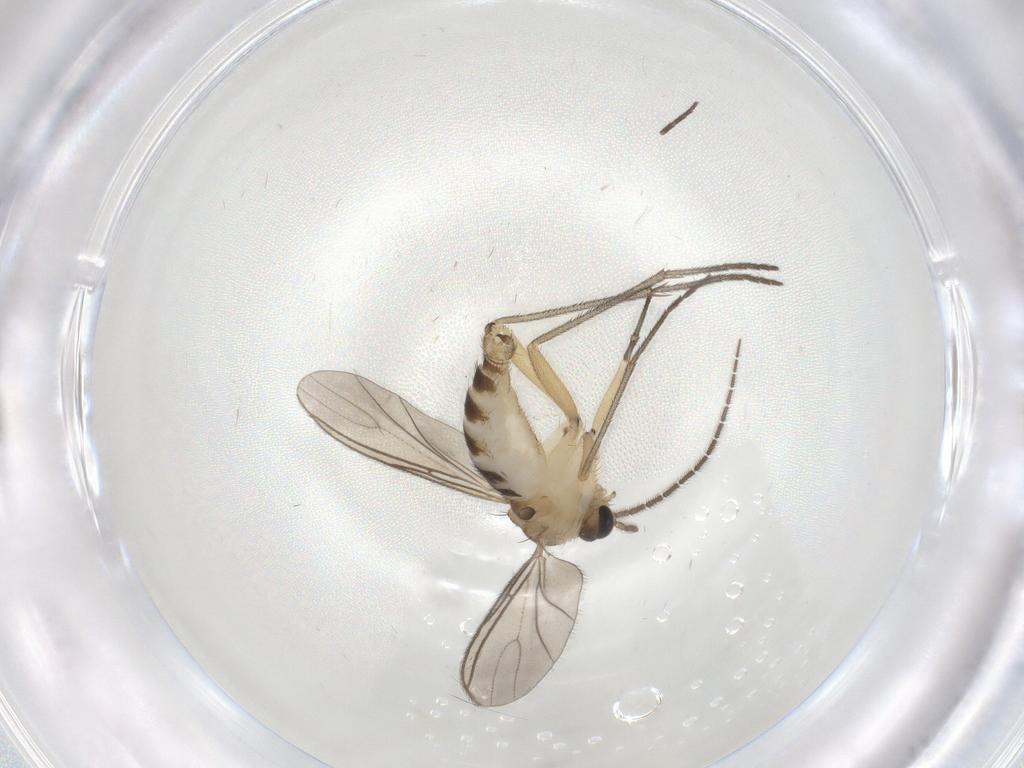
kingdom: Animalia
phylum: Arthropoda
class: Insecta
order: Diptera
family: Sciaridae
